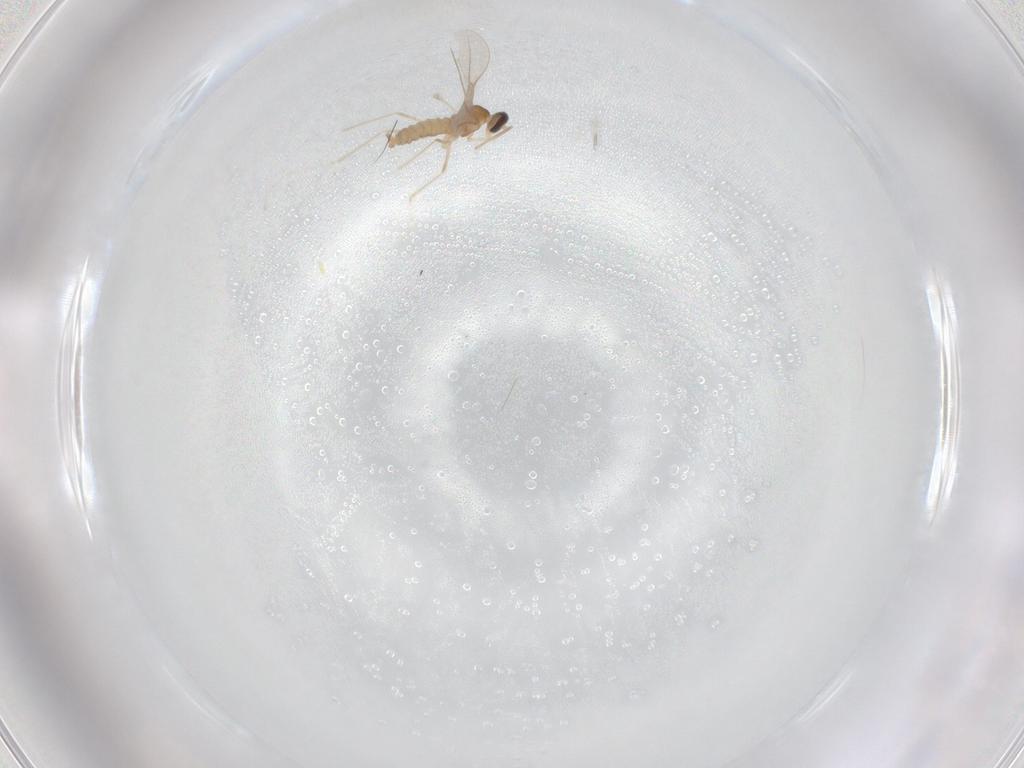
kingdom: Animalia
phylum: Arthropoda
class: Insecta
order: Diptera
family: Cecidomyiidae
